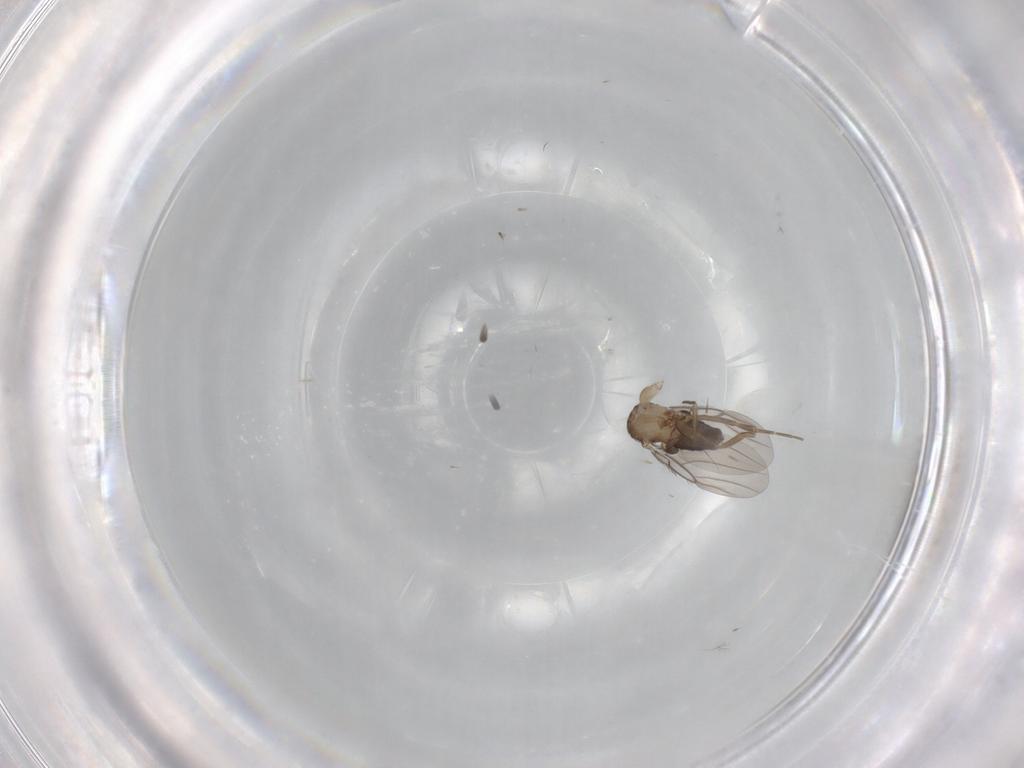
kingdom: Animalia
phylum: Arthropoda
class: Insecta
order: Diptera
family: Phoridae
